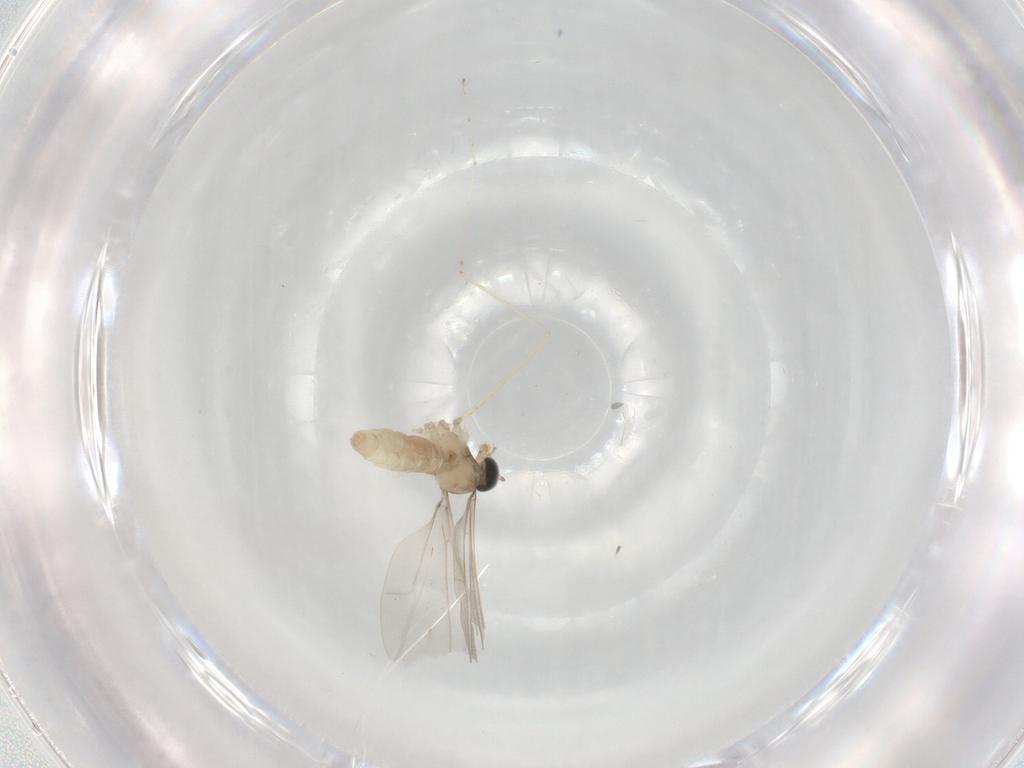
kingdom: Animalia
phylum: Arthropoda
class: Insecta
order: Diptera
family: Cecidomyiidae
